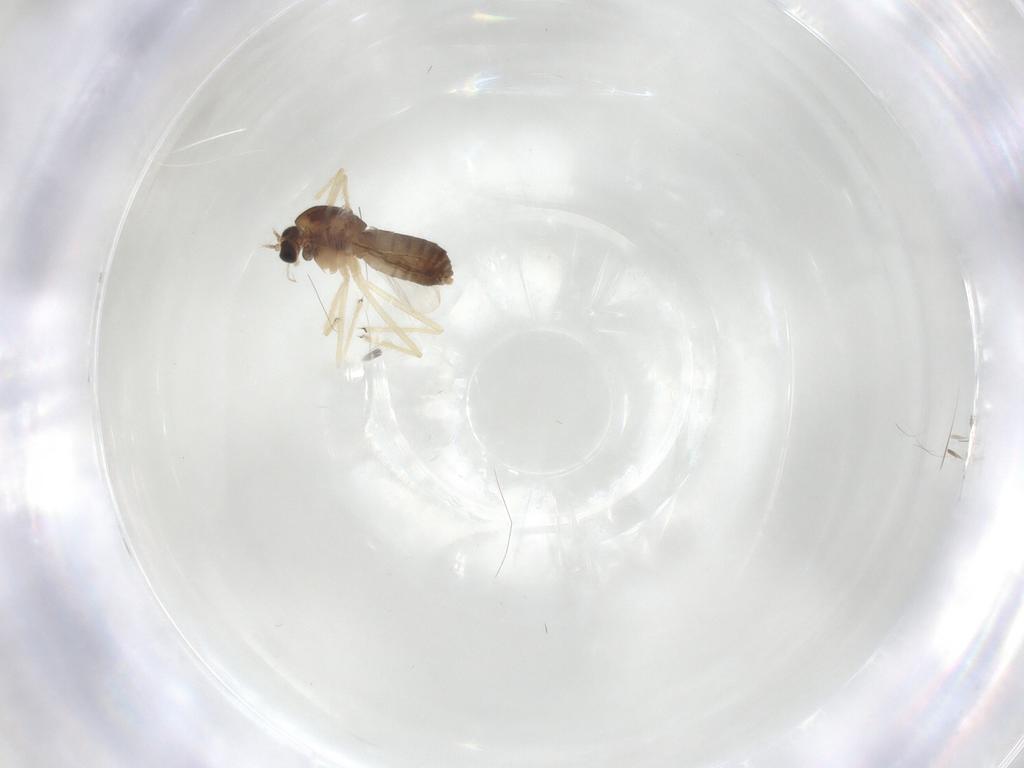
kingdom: Animalia
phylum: Arthropoda
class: Insecta
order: Diptera
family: Chironomidae
